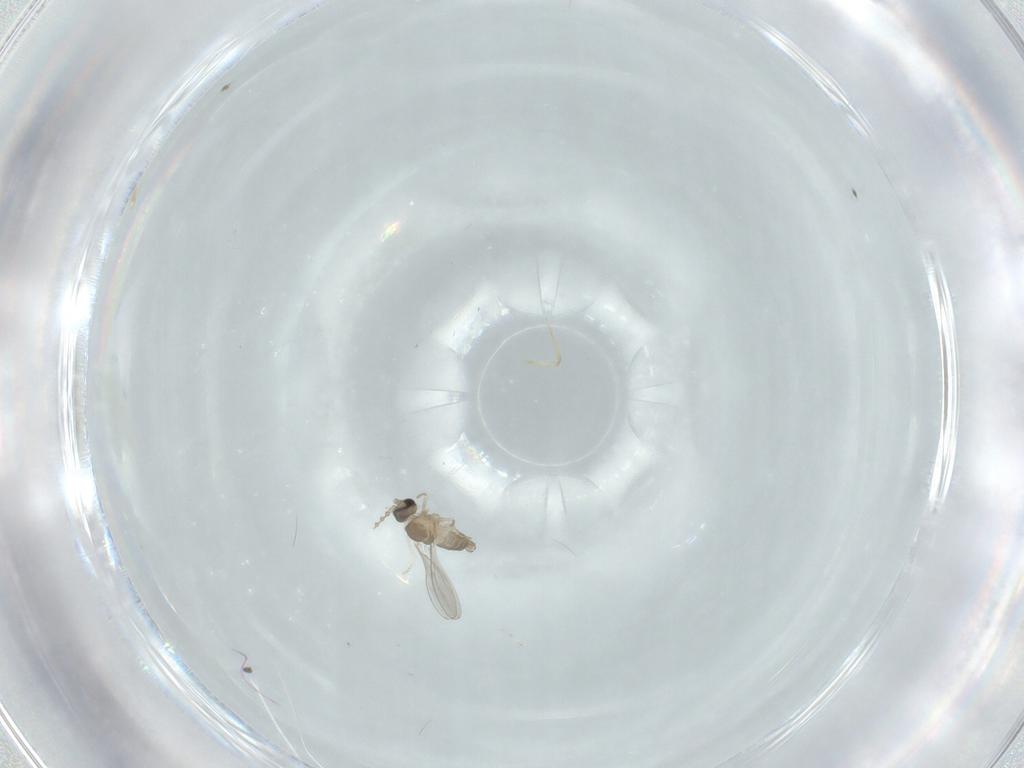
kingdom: Animalia
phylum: Arthropoda
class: Insecta
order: Diptera
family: Cecidomyiidae
